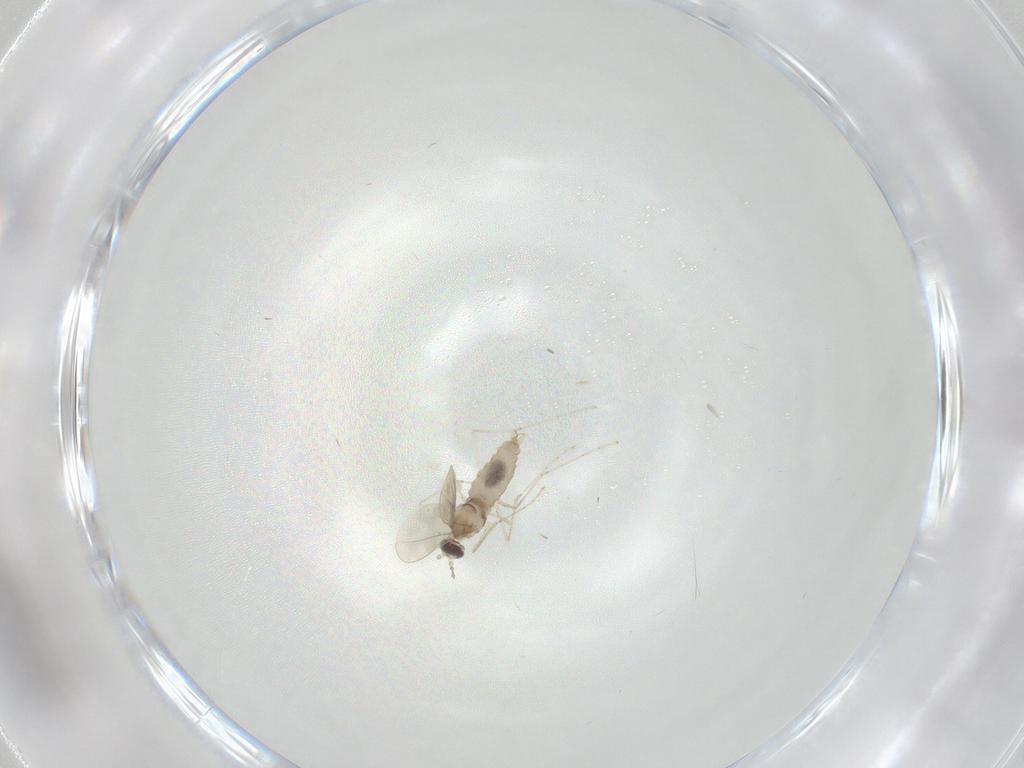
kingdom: Animalia
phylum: Arthropoda
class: Insecta
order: Diptera
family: Cecidomyiidae
